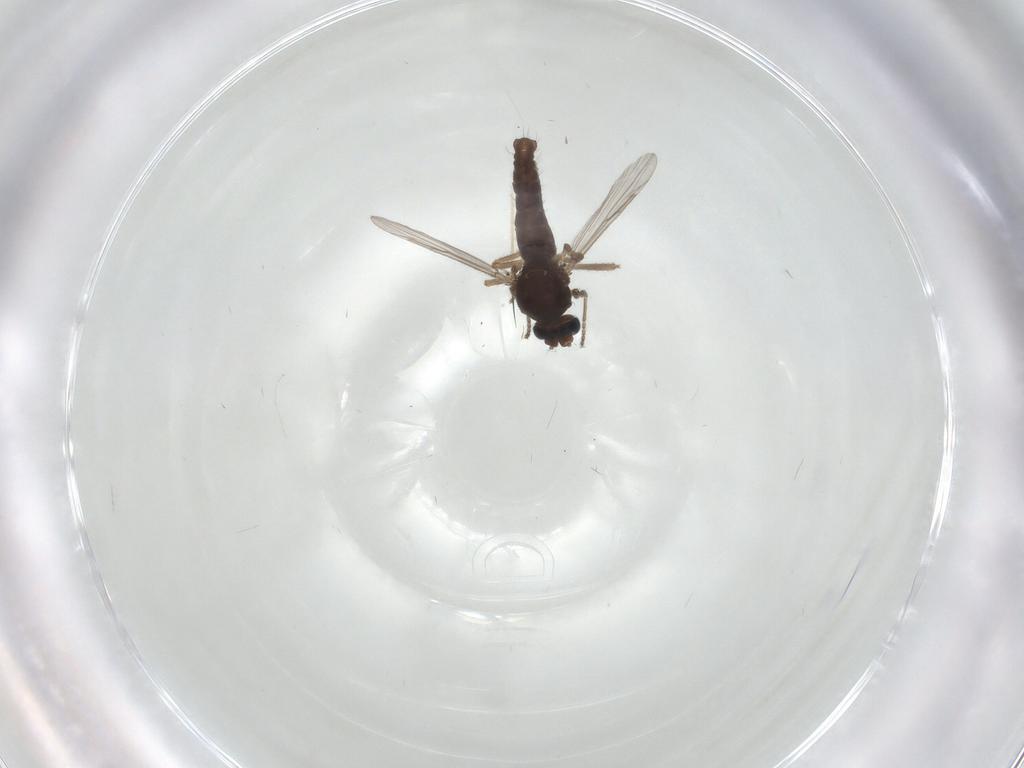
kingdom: Animalia
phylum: Arthropoda
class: Insecta
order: Diptera
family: Ceratopogonidae
